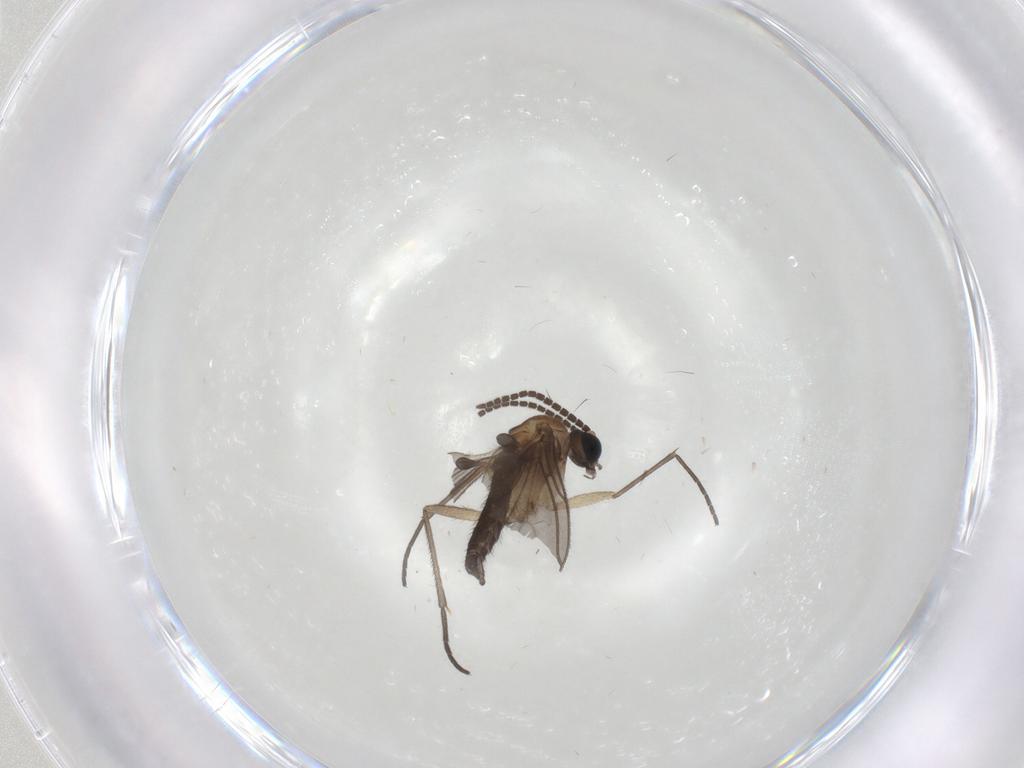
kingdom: Animalia
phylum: Arthropoda
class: Insecta
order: Diptera
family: Sciaridae
